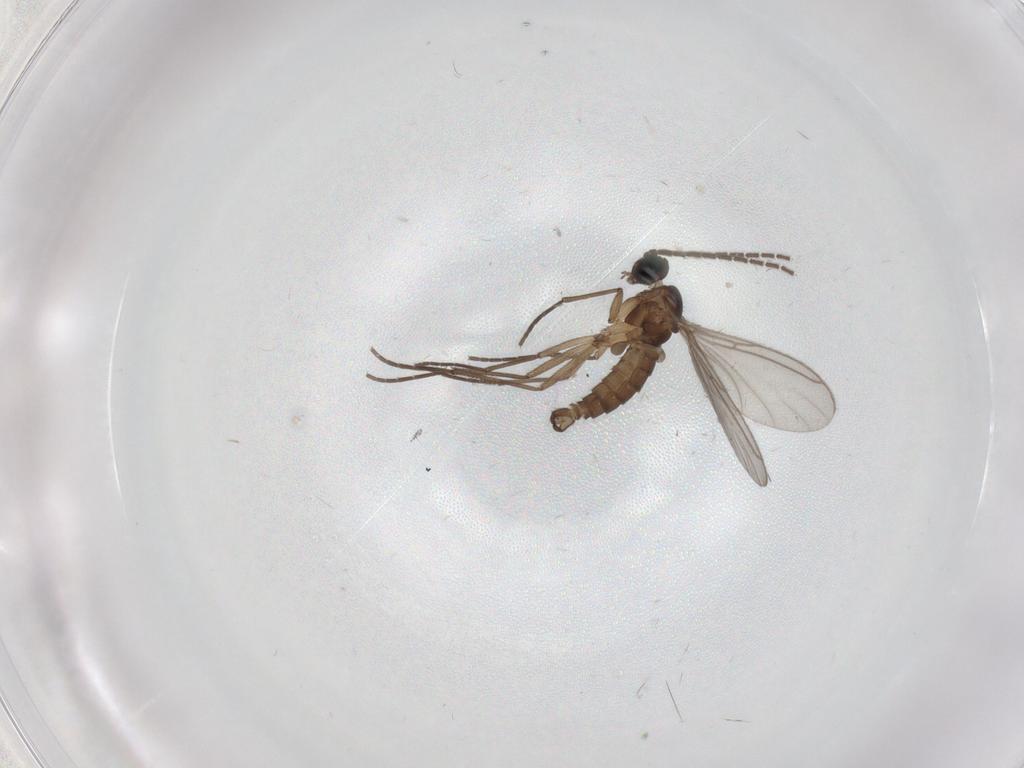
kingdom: Animalia
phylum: Arthropoda
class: Insecta
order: Diptera
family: Sciaridae
